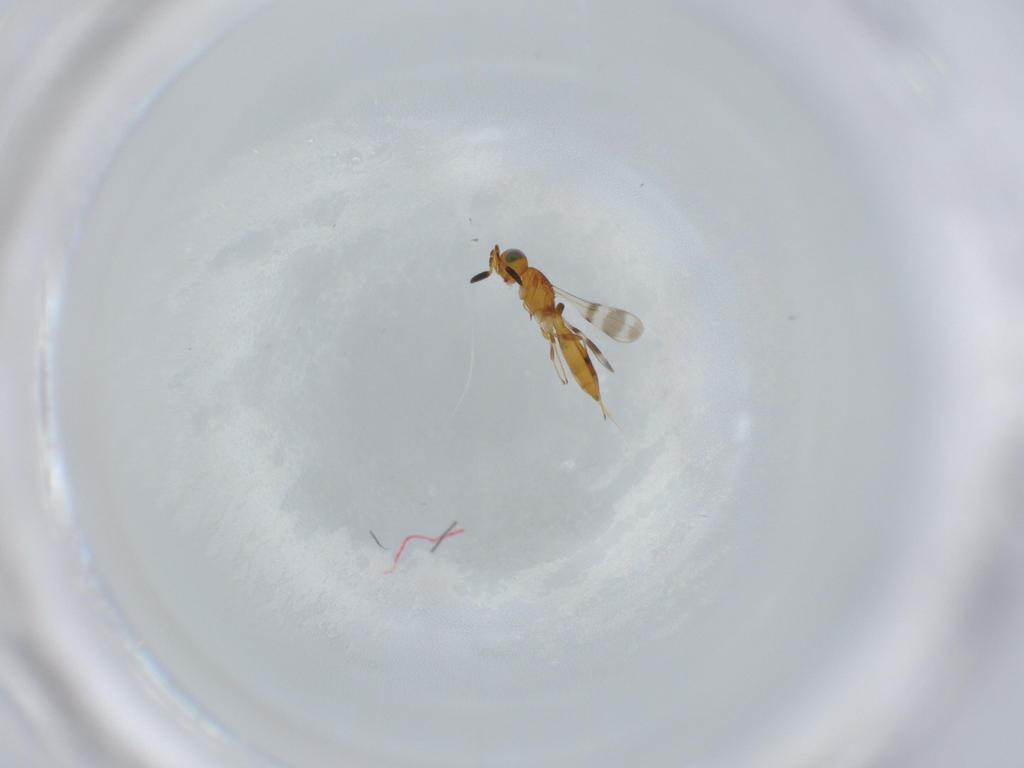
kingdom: Animalia
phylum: Arthropoda
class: Insecta
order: Hymenoptera
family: Scelionidae
